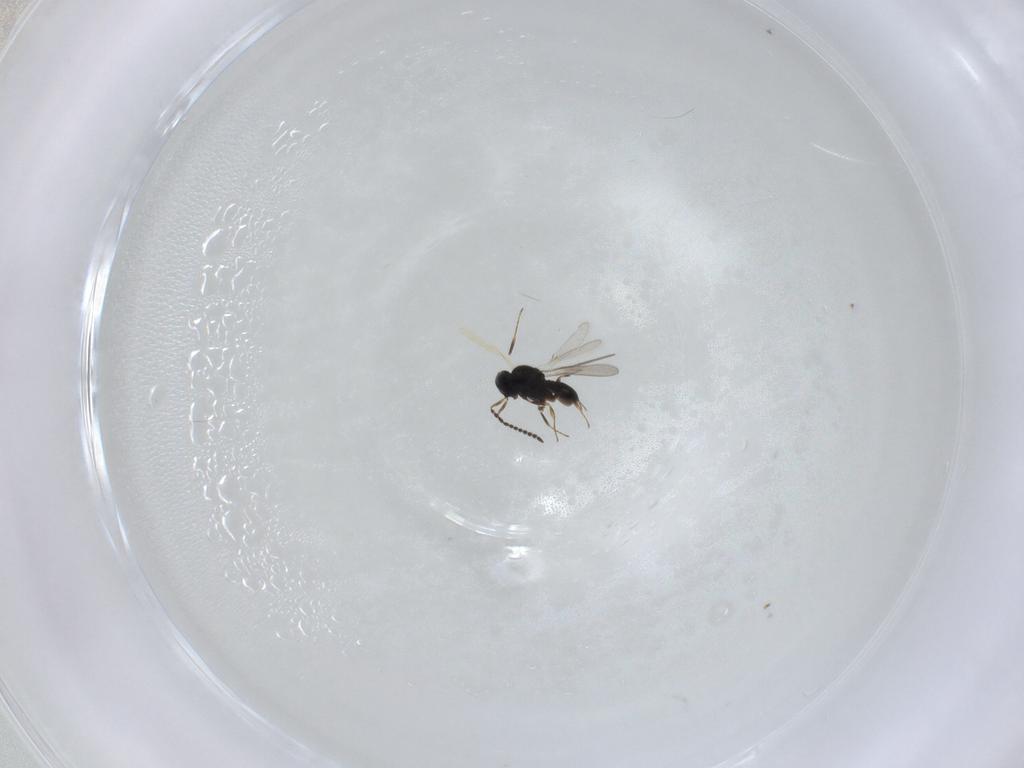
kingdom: Animalia
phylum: Arthropoda
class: Insecta
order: Hymenoptera
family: Scelionidae
